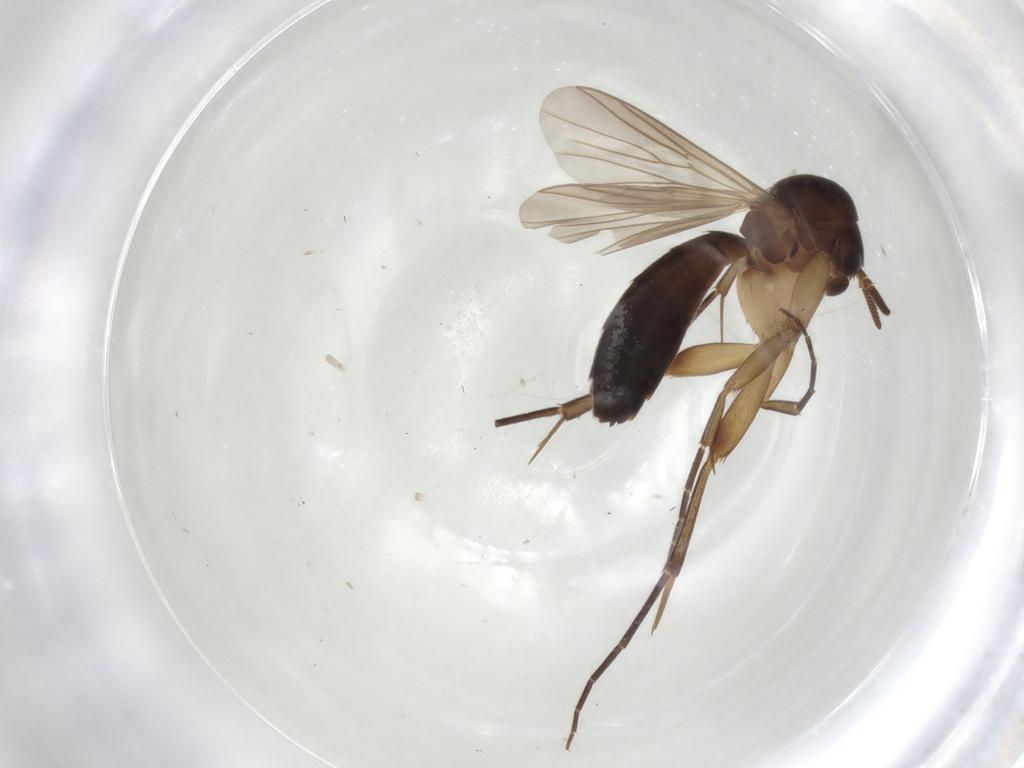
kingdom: Animalia
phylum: Arthropoda
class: Insecta
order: Diptera
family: Mycetophilidae
